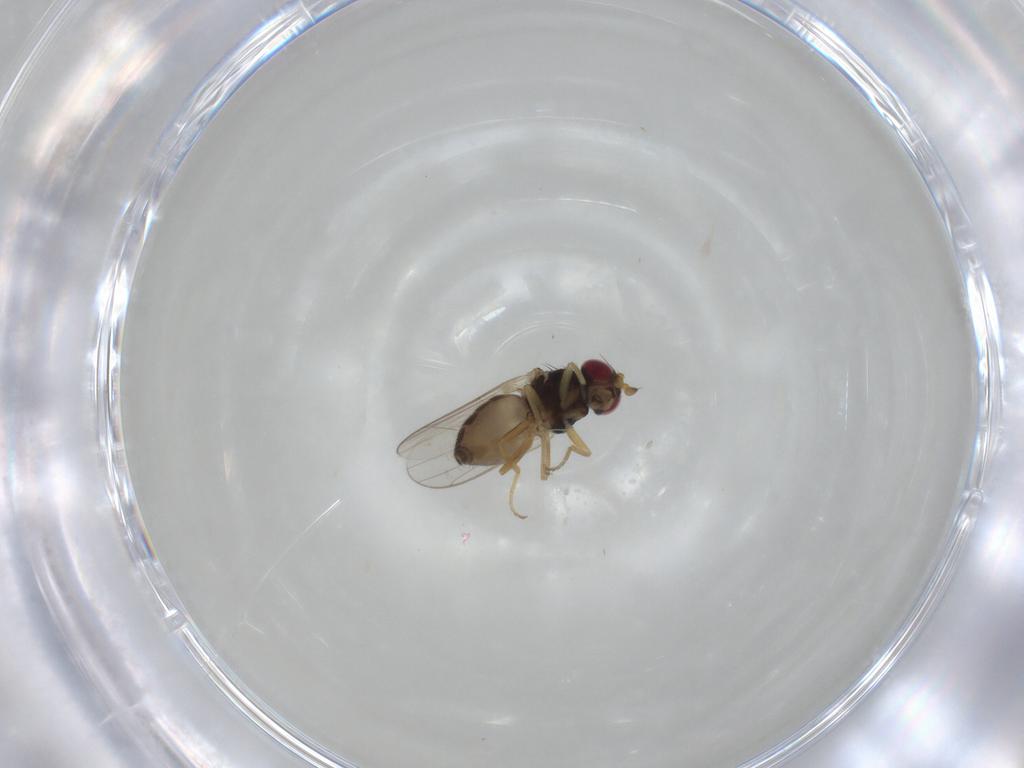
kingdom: Animalia
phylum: Arthropoda
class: Insecta
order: Diptera
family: Chloropidae
